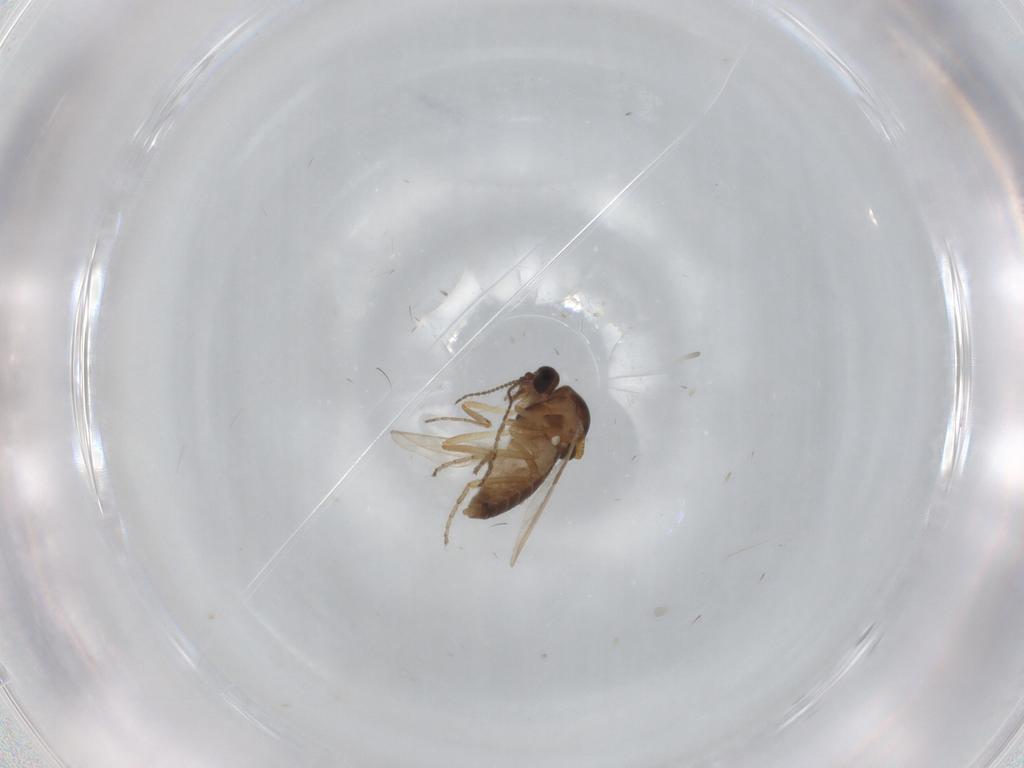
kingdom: Animalia
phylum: Arthropoda
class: Insecta
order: Diptera
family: Ceratopogonidae
